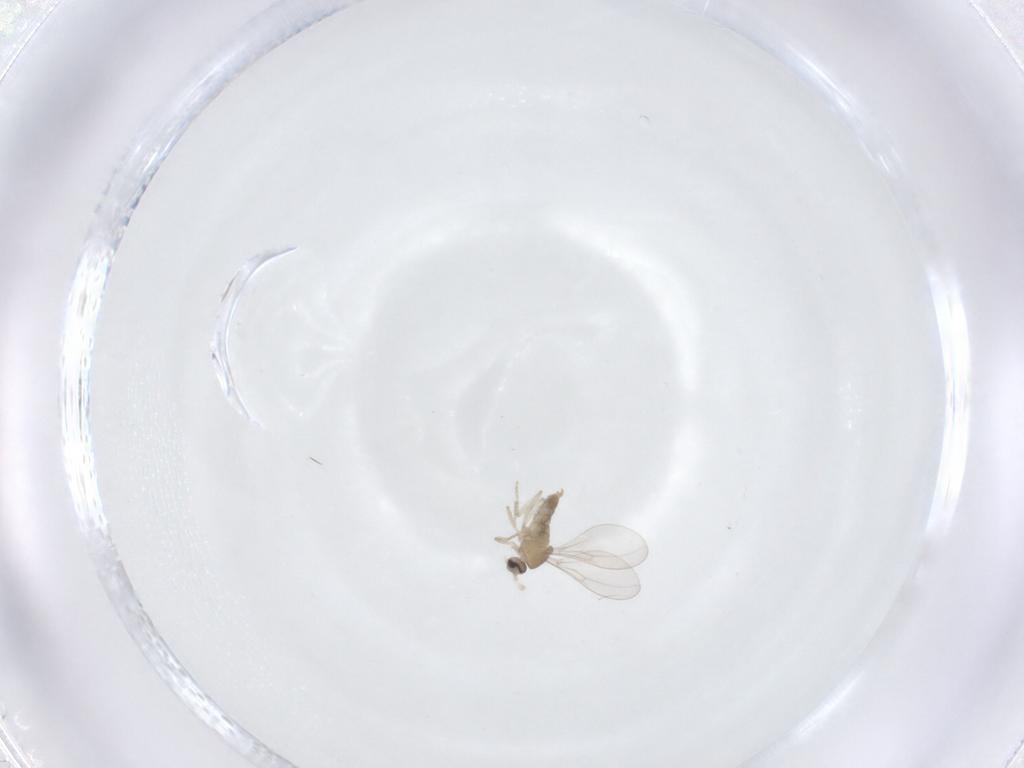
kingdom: Animalia
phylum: Arthropoda
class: Insecta
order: Diptera
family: Cecidomyiidae
